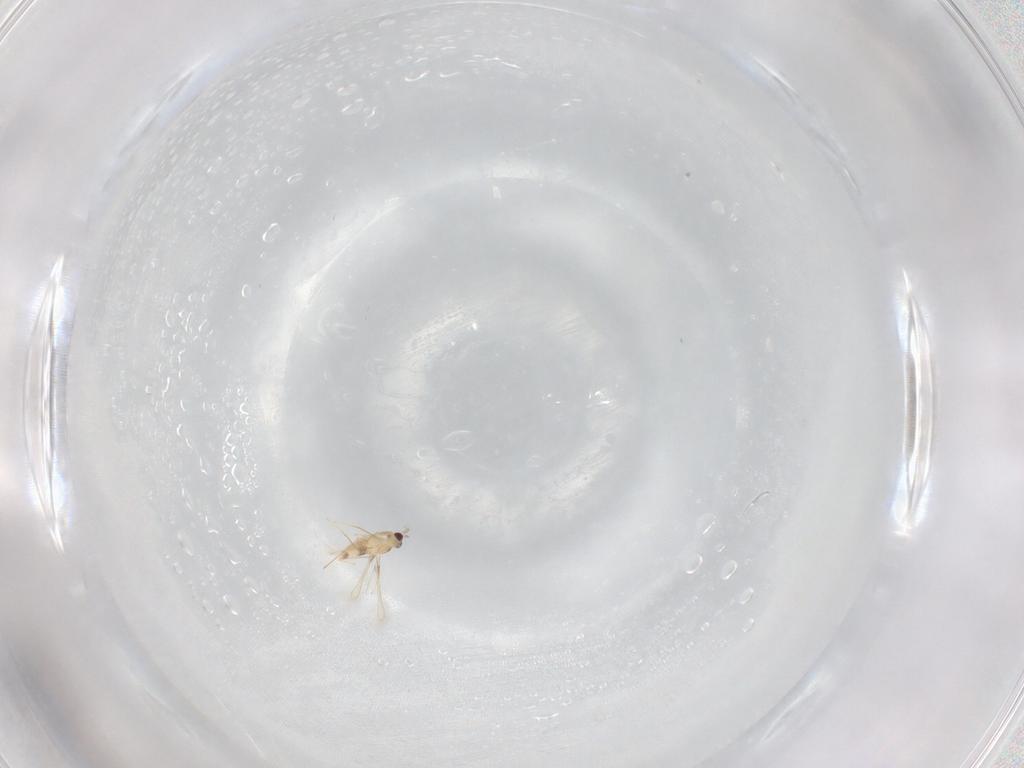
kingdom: Animalia
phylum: Arthropoda
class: Insecta
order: Hymenoptera
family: Mymaridae
